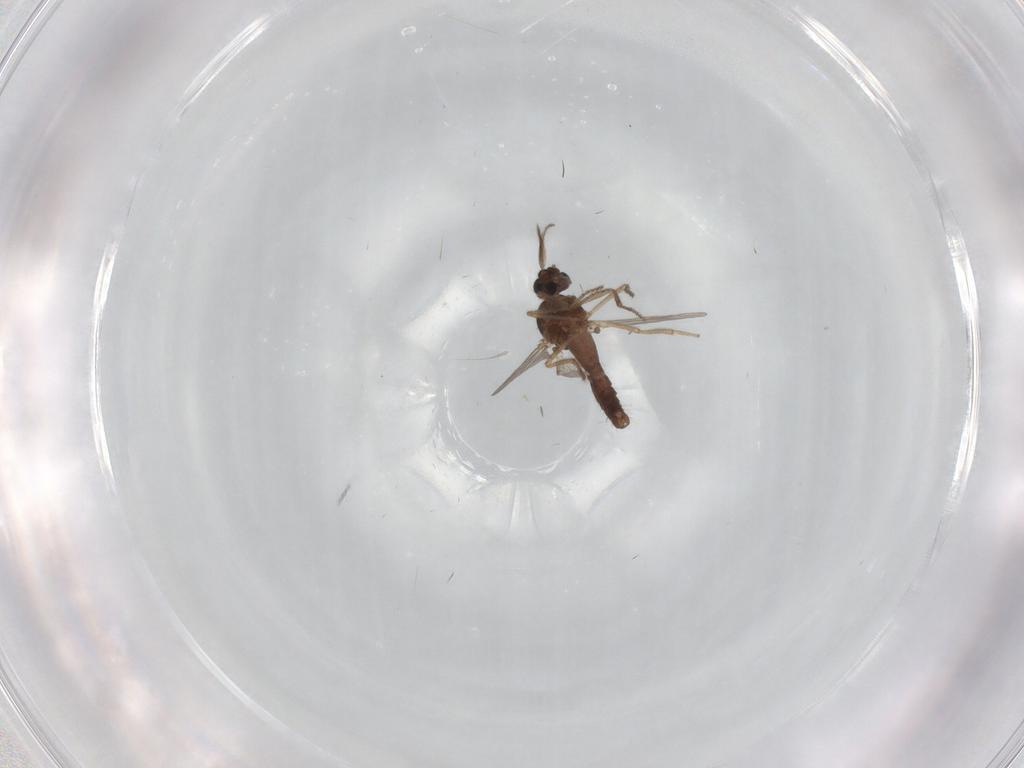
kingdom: Animalia
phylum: Arthropoda
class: Insecta
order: Diptera
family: Ceratopogonidae
